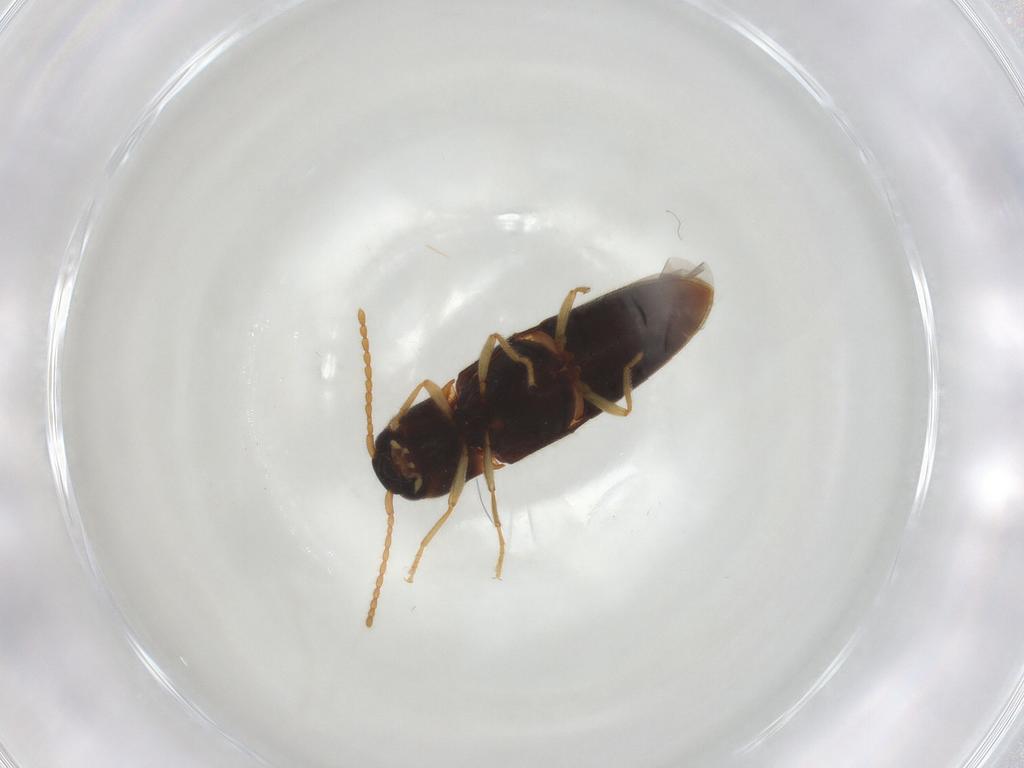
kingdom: Animalia
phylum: Arthropoda
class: Insecta
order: Coleoptera
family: Elateridae
